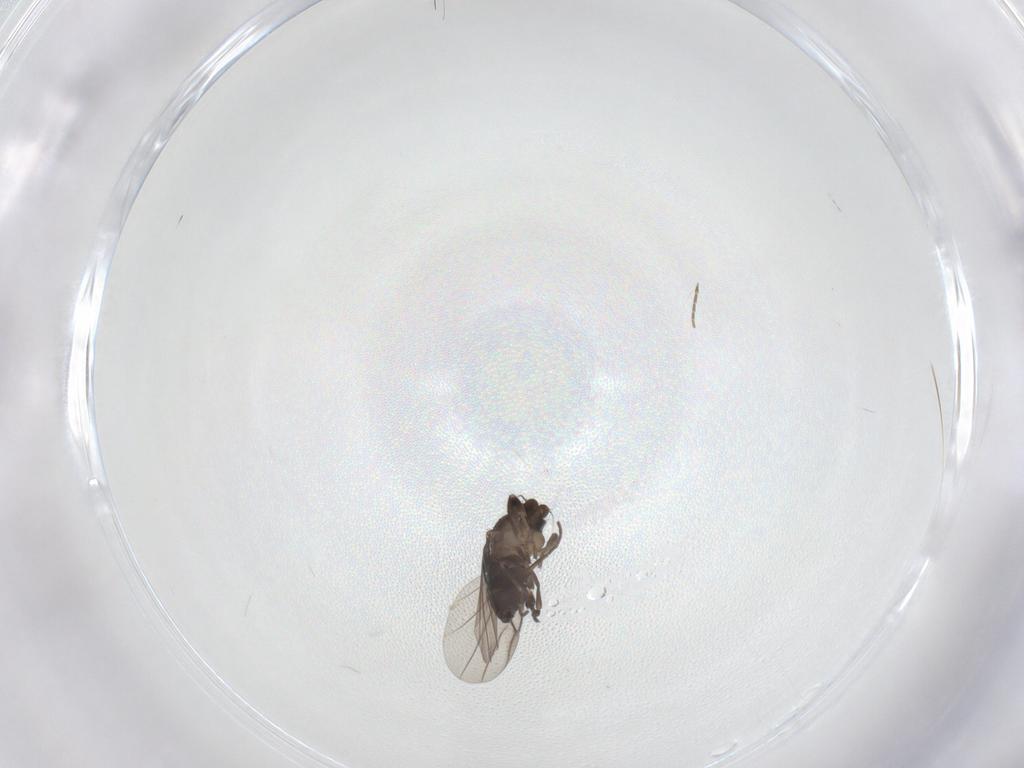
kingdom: Animalia
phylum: Arthropoda
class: Insecta
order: Diptera
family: Phoridae
